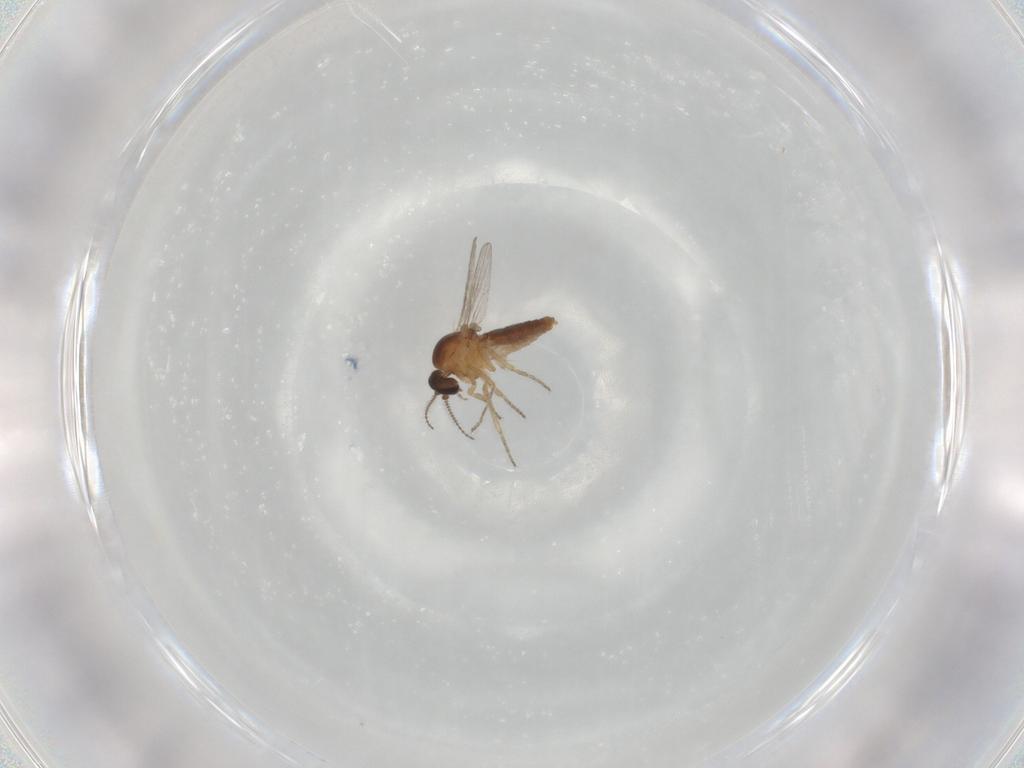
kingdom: Animalia
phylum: Arthropoda
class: Insecta
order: Diptera
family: Ceratopogonidae
